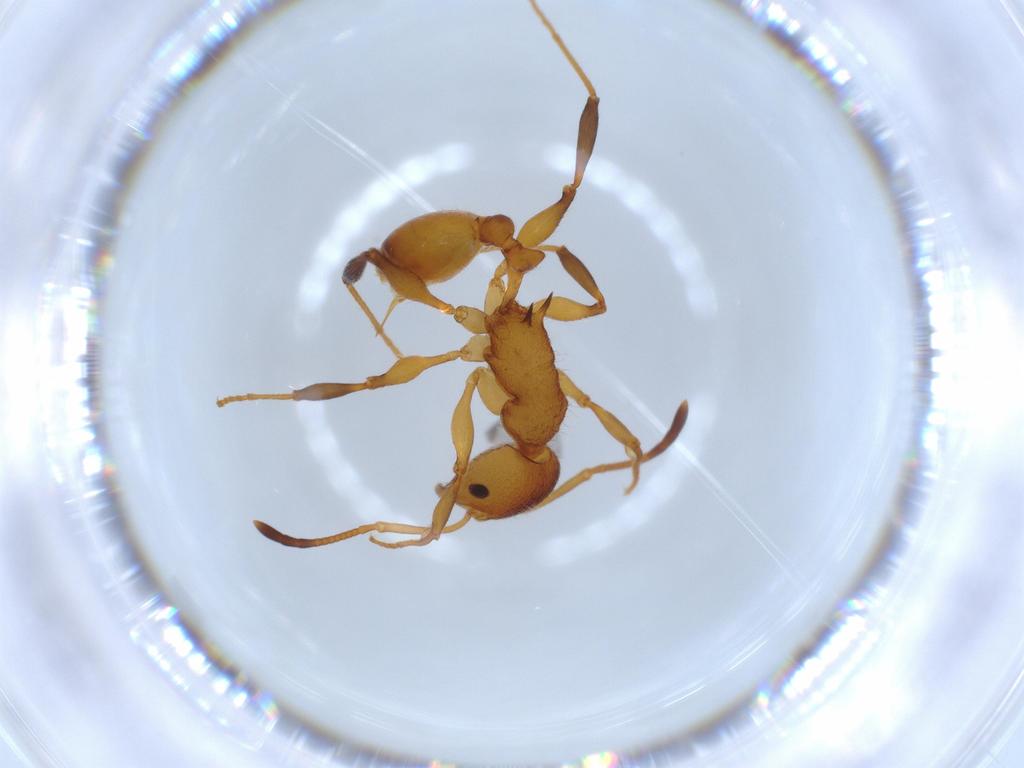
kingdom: Animalia
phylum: Arthropoda
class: Insecta
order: Hymenoptera
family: Formicidae
